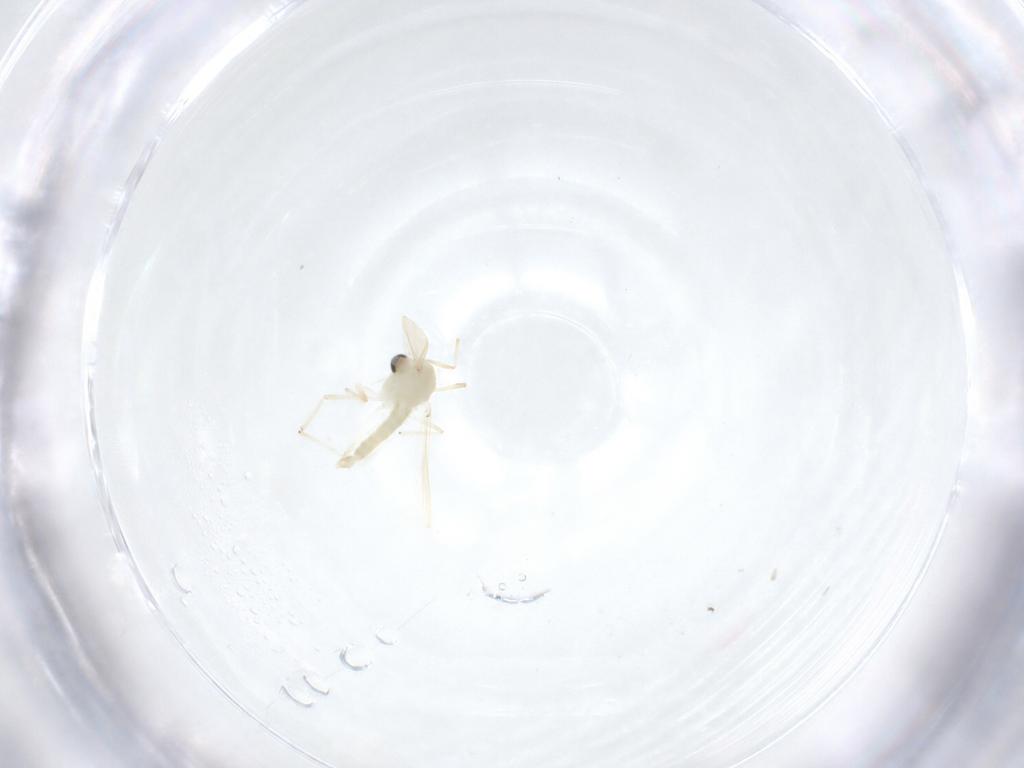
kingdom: Animalia
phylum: Arthropoda
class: Insecta
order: Diptera
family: Chironomidae
